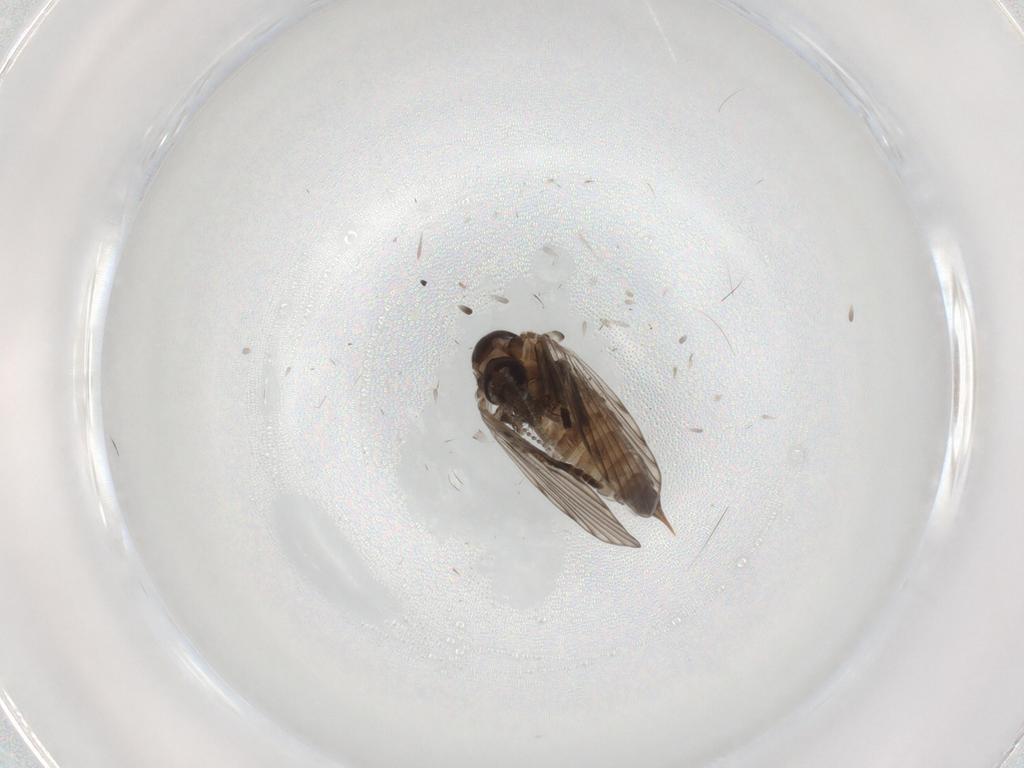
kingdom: Animalia
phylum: Arthropoda
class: Insecta
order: Diptera
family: Psychodidae
